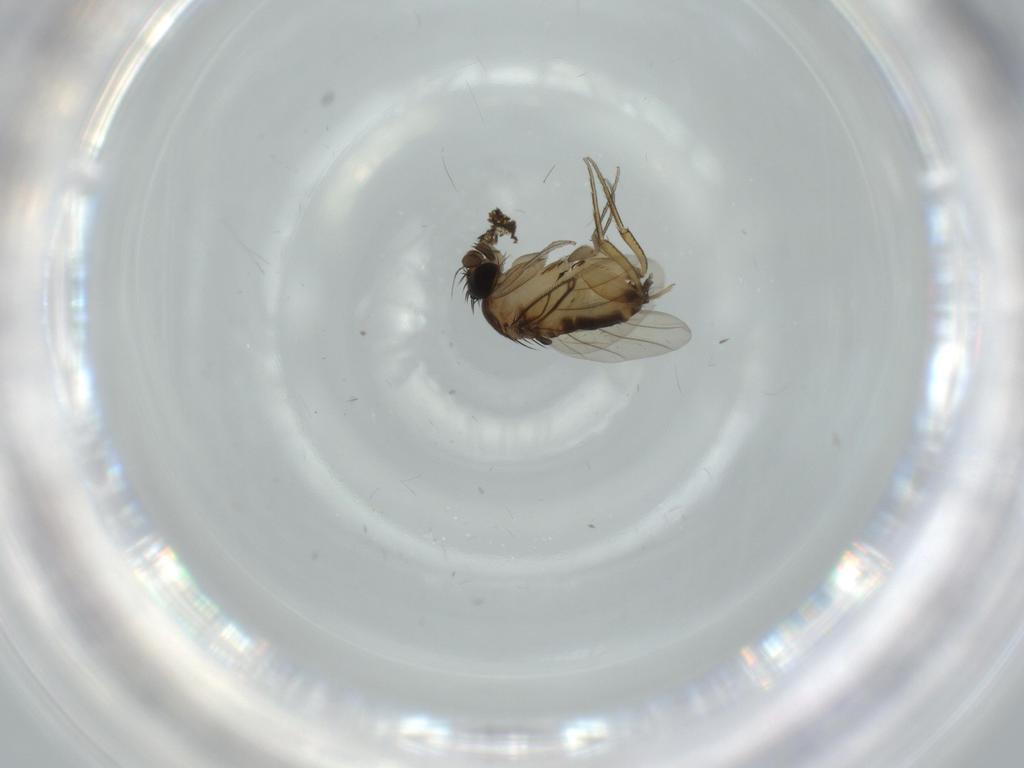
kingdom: Animalia
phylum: Arthropoda
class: Insecta
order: Diptera
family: Phoridae
